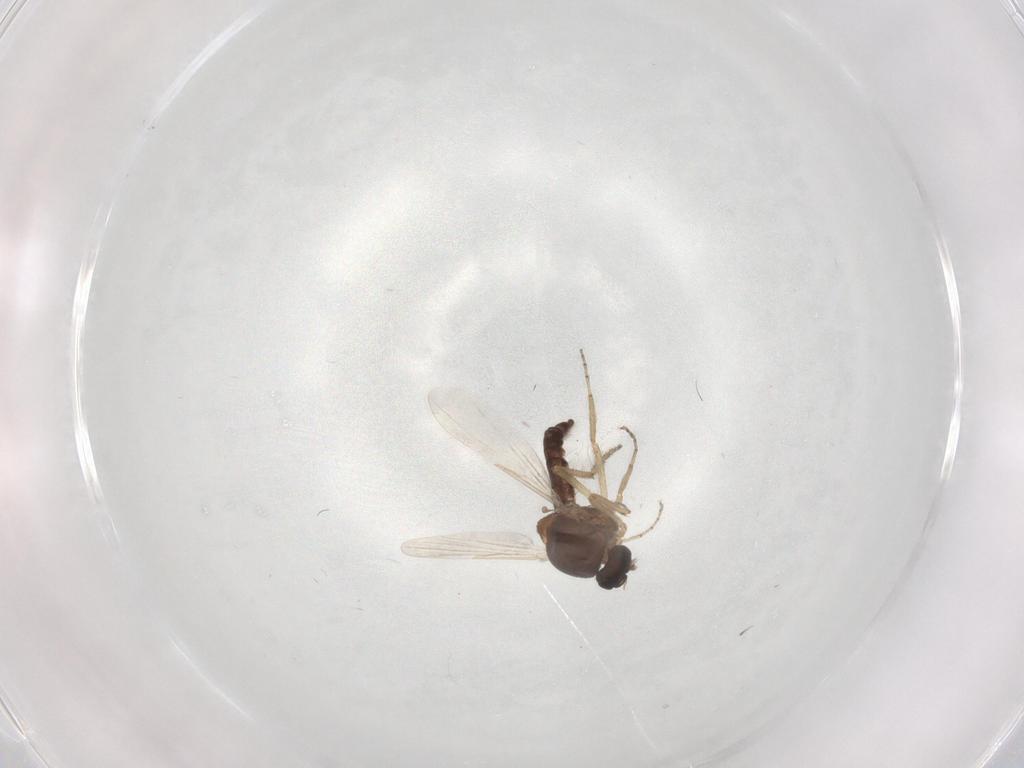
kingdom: Animalia
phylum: Arthropoda
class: Insecta
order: Diptera
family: Ceratopogonidae
